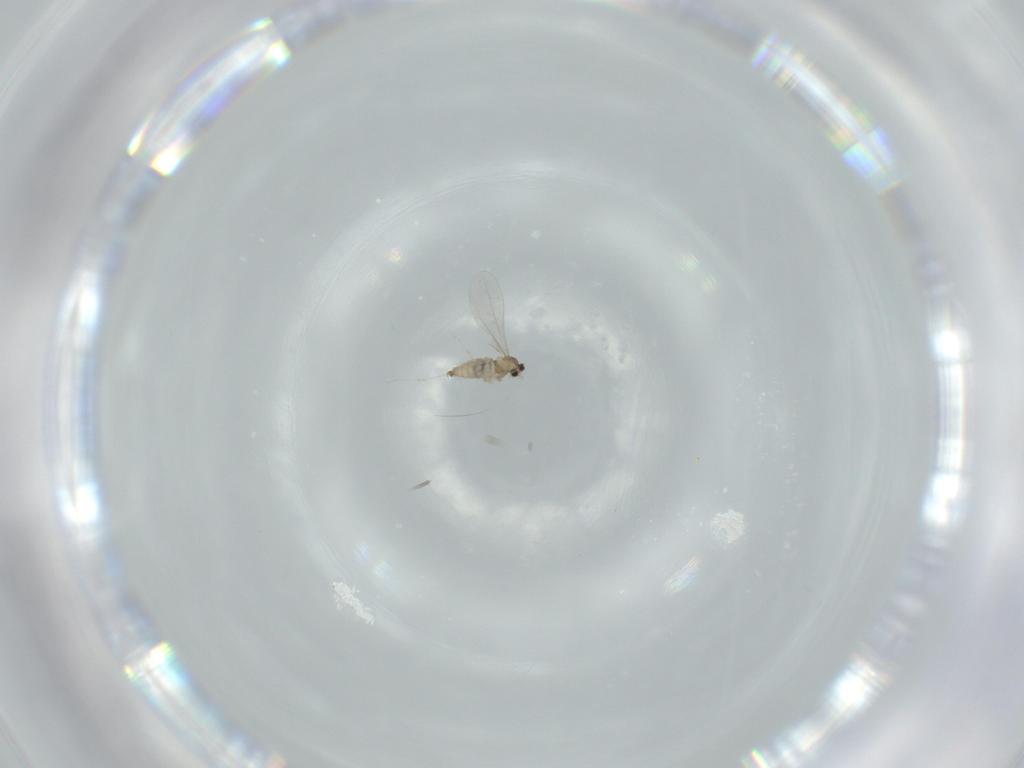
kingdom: Animalia
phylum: Arthropoda
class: Insecta
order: Diptera
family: Cecidomyiidae
